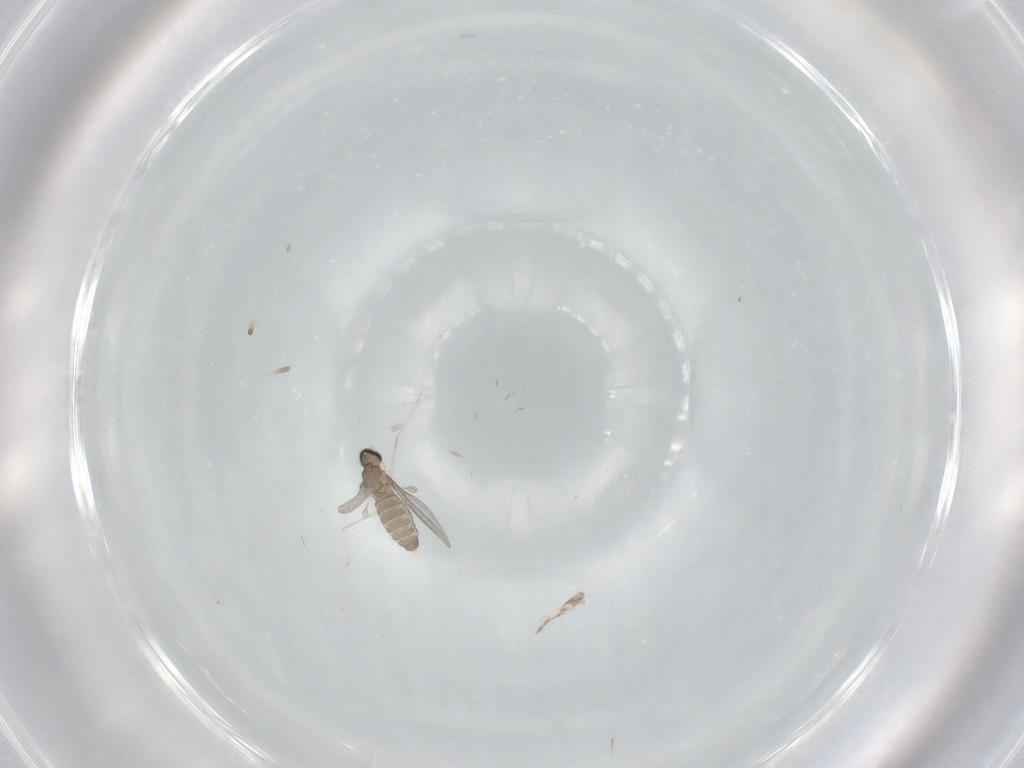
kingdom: Animalia
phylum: Arthropoda
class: Insecta
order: Diptera
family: Cecidomyiidae
